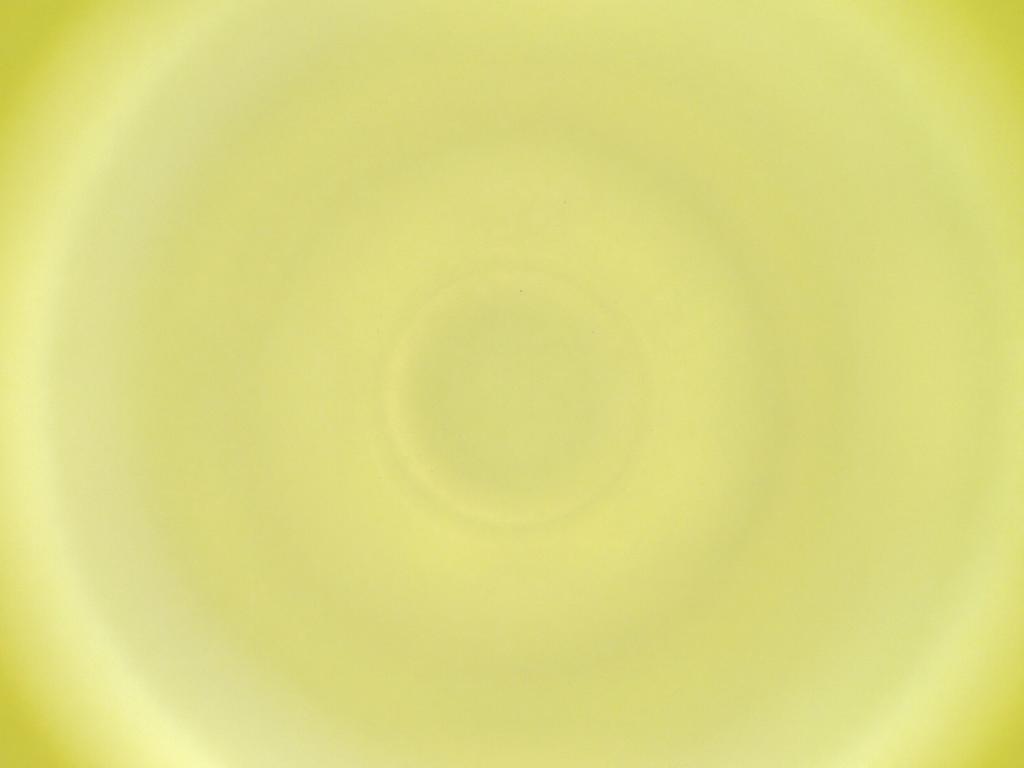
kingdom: Animalia
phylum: Arthropoda
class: Insecta
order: Diptera
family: Cecidomyiidae
